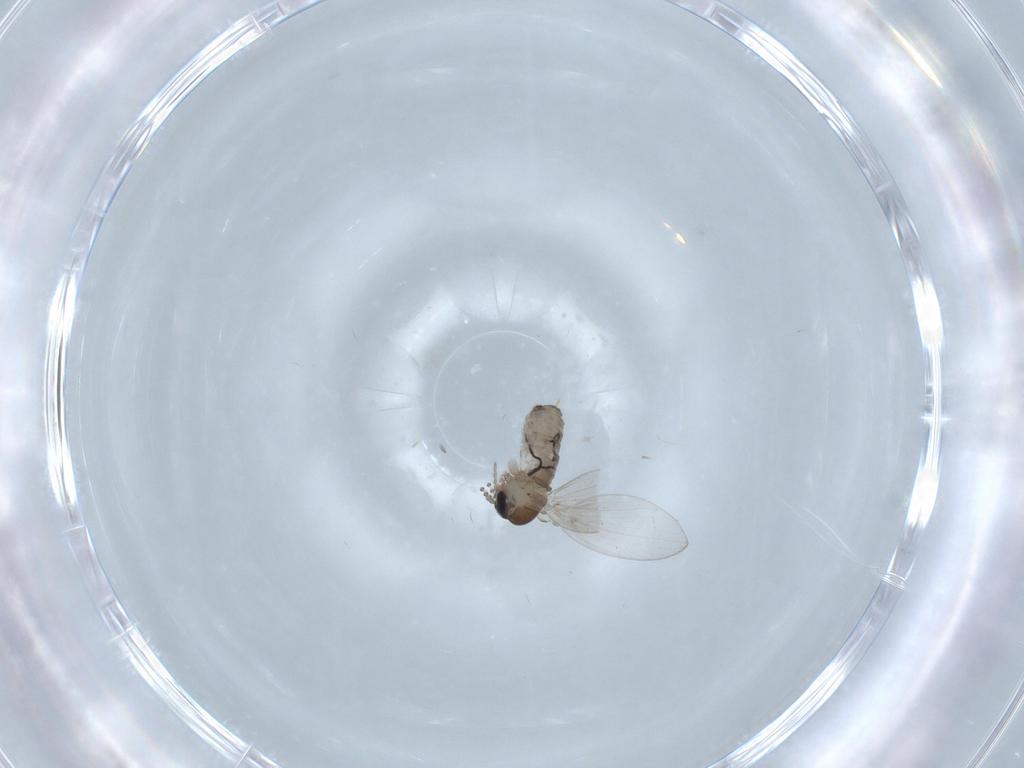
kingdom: Animalia
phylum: Arthropoda
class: Insecta
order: Diptera
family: Psychodidae
